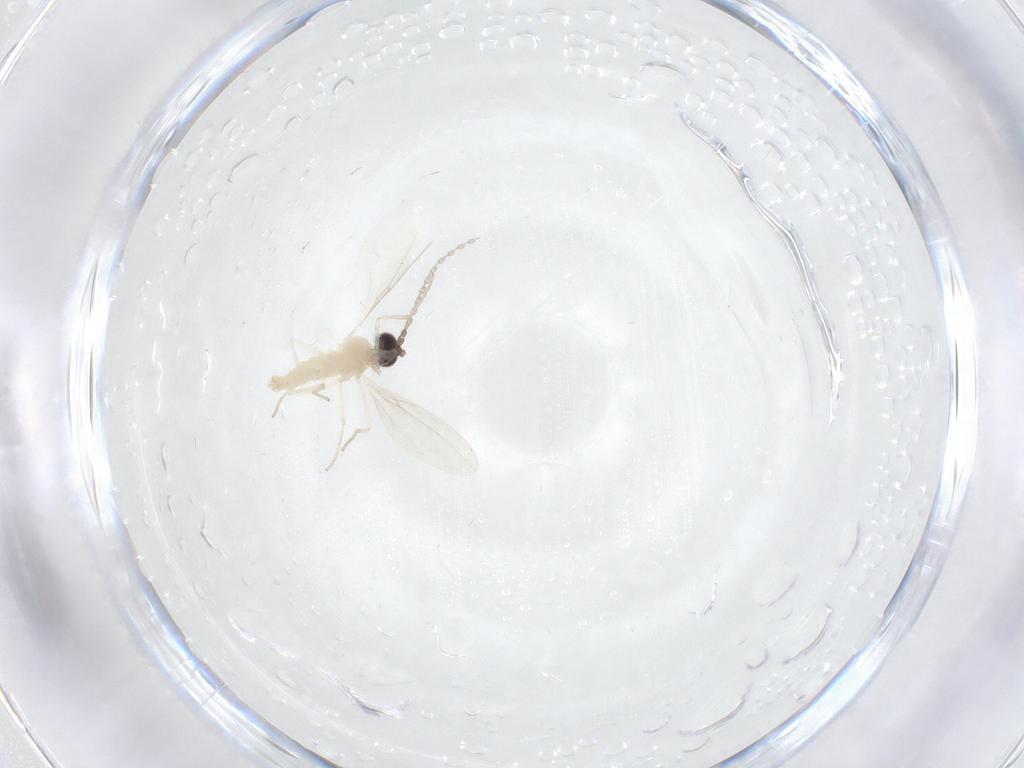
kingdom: Animalia
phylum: Arthropoda
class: Insecta
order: Diptera
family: Cecidomyiidae
